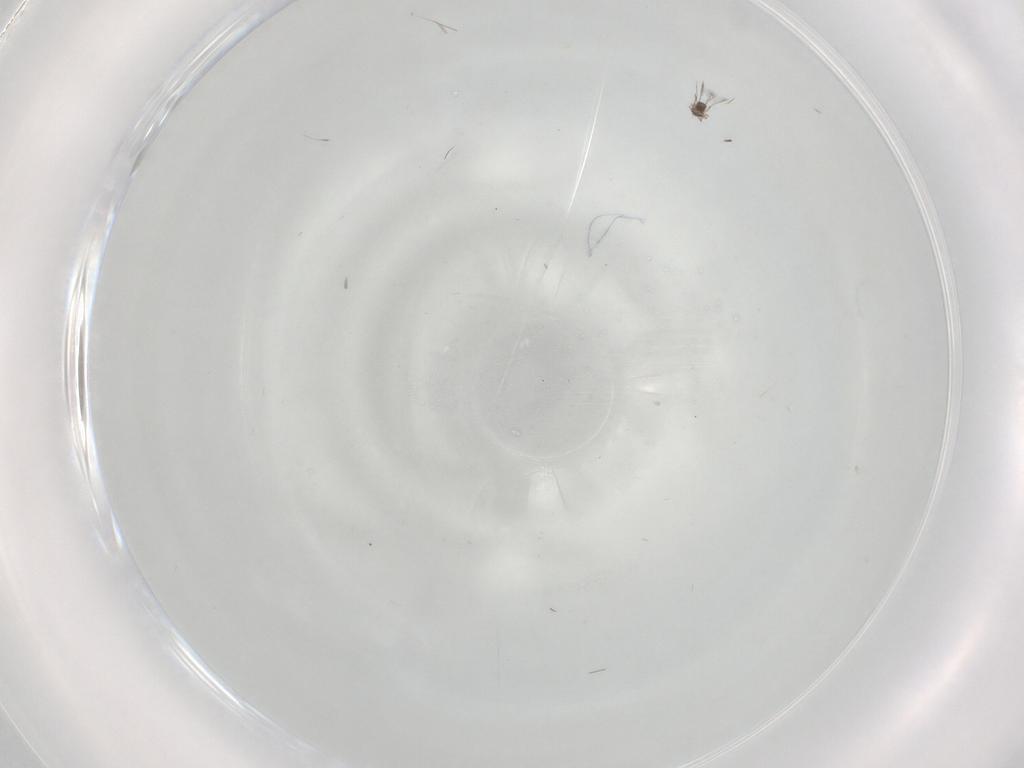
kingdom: Animalia
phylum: Arthropoda
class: Insecta
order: Hymenoptera
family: Mymaridae
